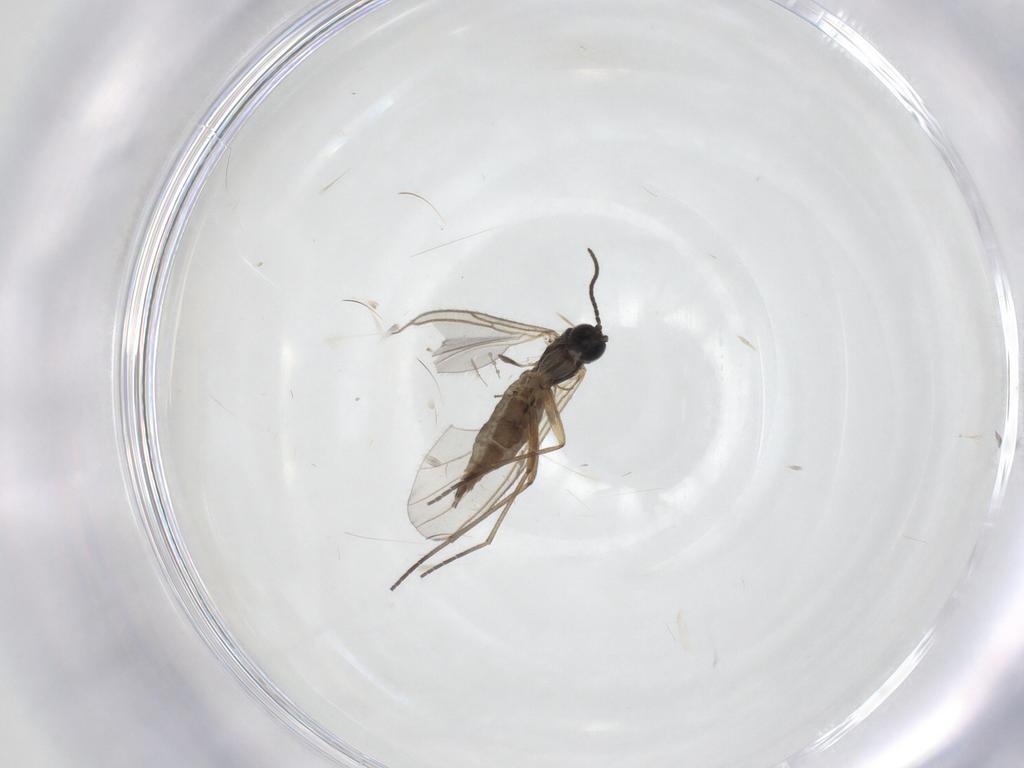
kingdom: Animalia
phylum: Arthropoda
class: Insecta
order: Diptera
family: Sciaridae
